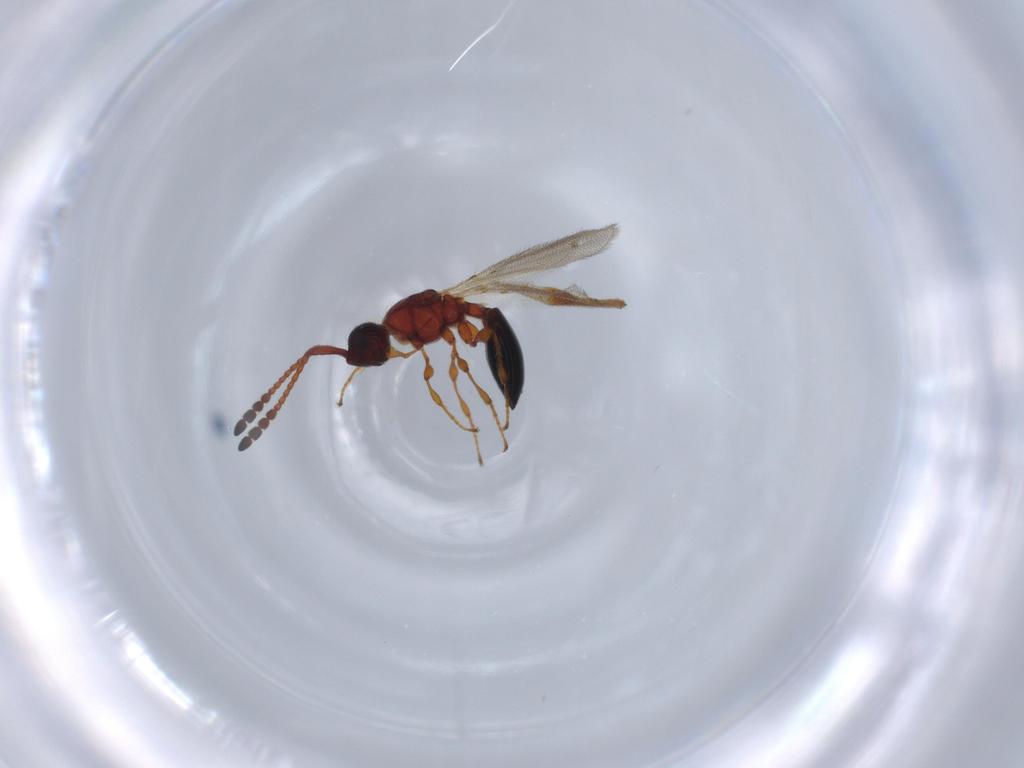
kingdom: Animalia
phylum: Arthropoda
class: Insecta
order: Hymenoptera
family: Diapriidae
